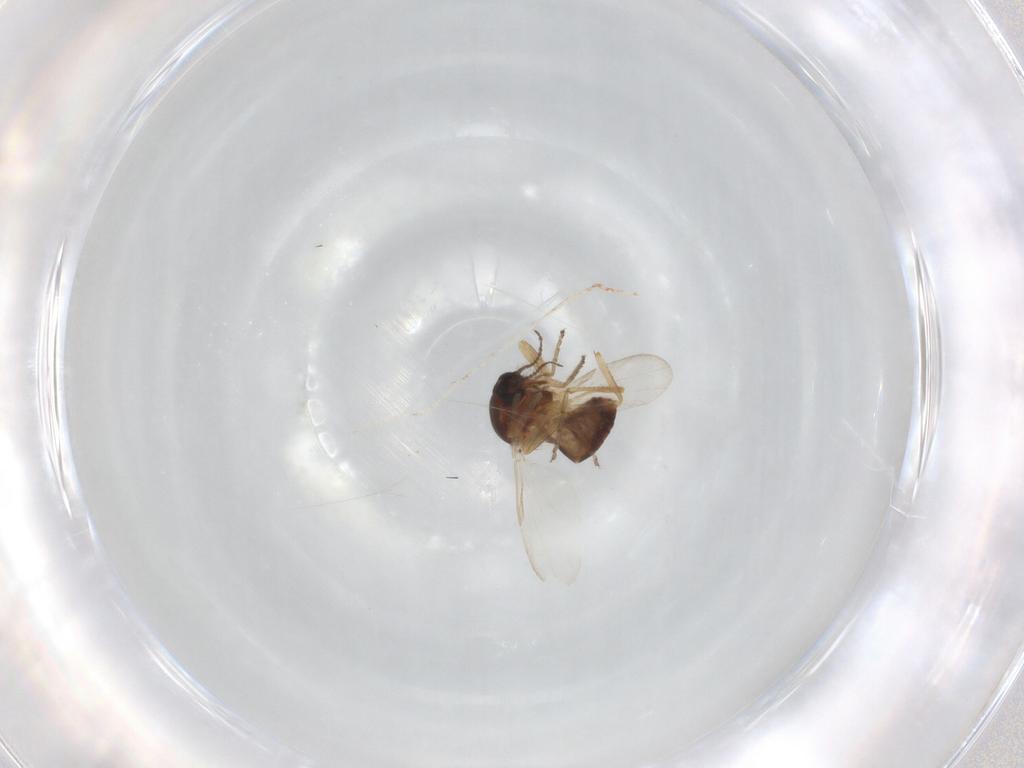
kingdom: Animalia
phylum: Arthropoda
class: Insecta
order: Diptera
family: Ceratopogonidae
